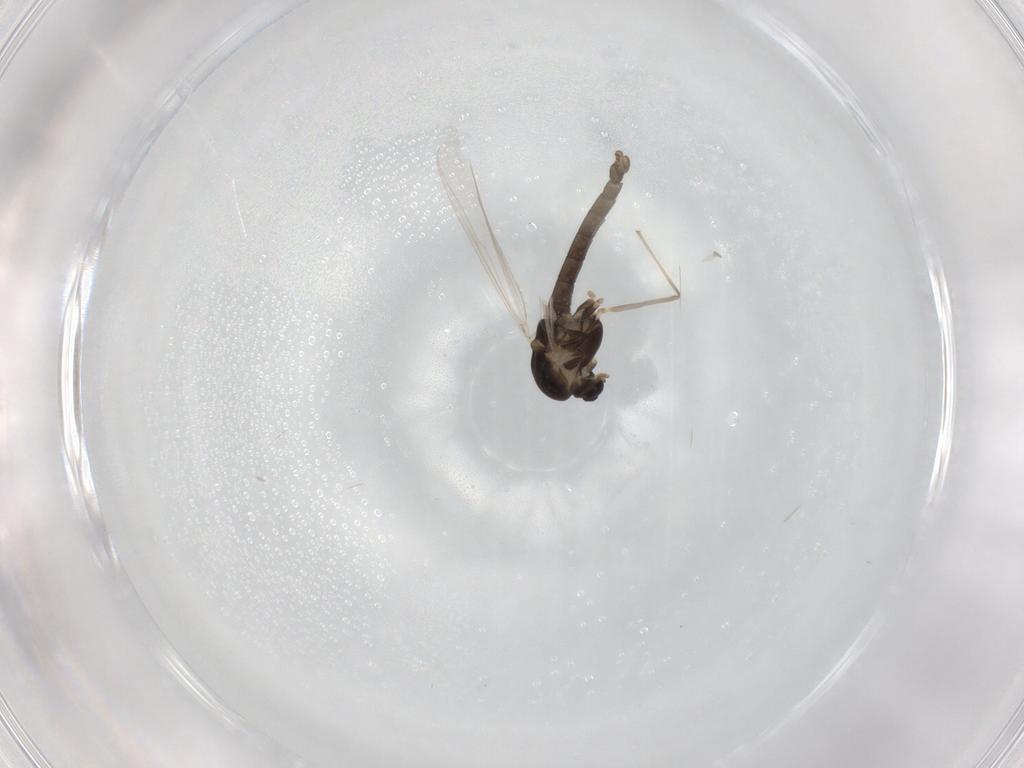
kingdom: Animalia
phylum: Arthropoda
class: Insecta
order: Diptera
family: Chironomidae
